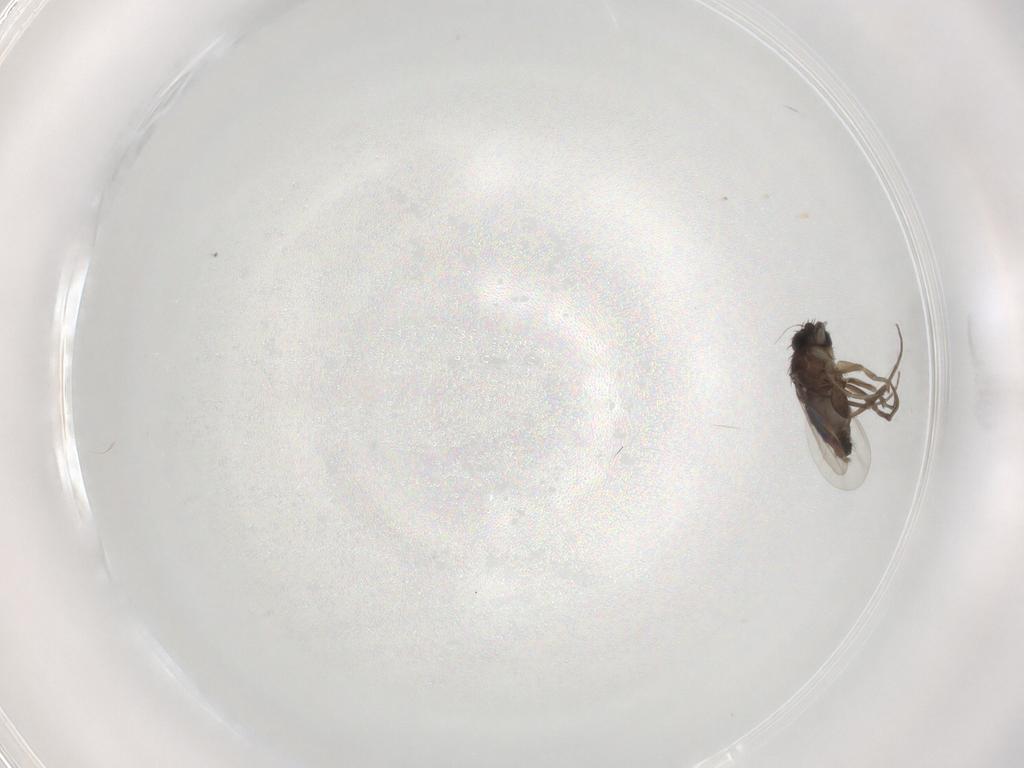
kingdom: Animalia
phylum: Arthropoda
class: Insecta
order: Diptera
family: Phoridae
